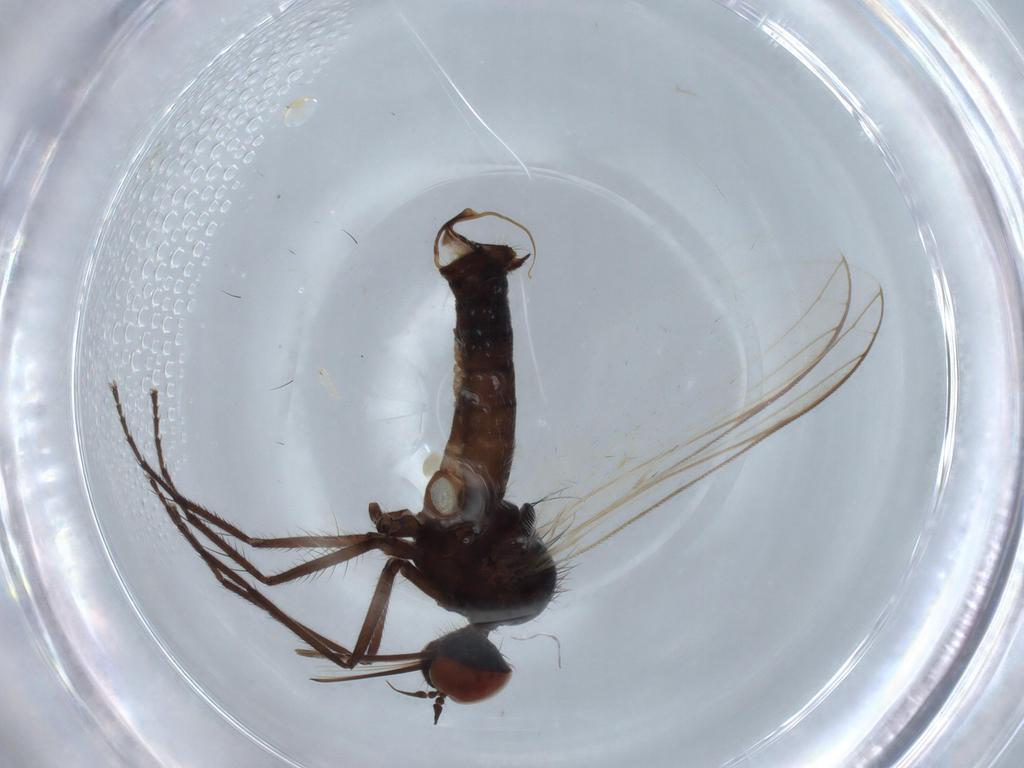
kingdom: Animalia
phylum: Arthropoda
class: Insecta
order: Diptera
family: Empididae
